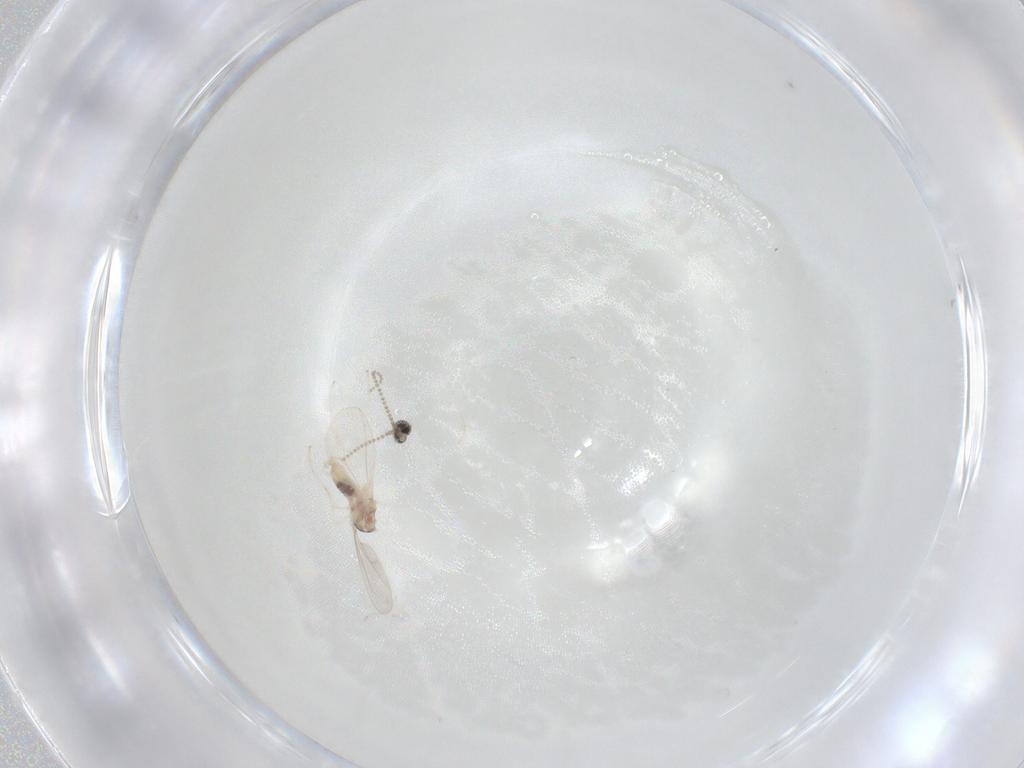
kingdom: Animalia
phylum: Arthropoda
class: Insecta
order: Diptera
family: Cecidomyiidae
